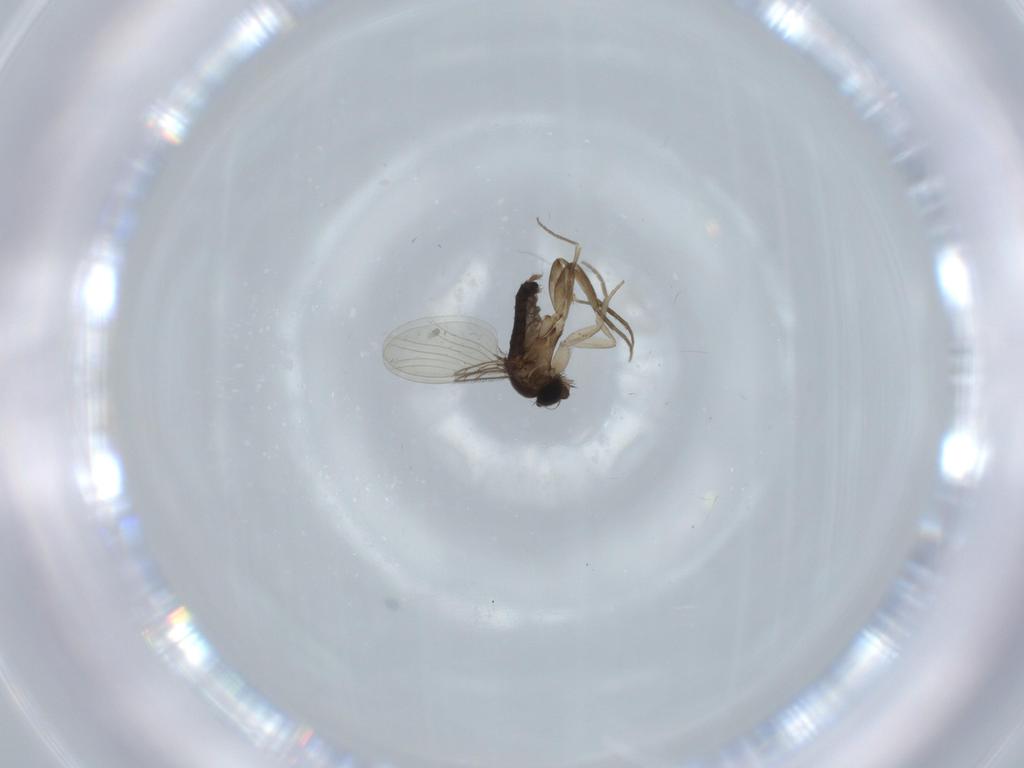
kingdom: Animalia
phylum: Arthropoda
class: Insecta
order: Diptera
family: Phoridae
